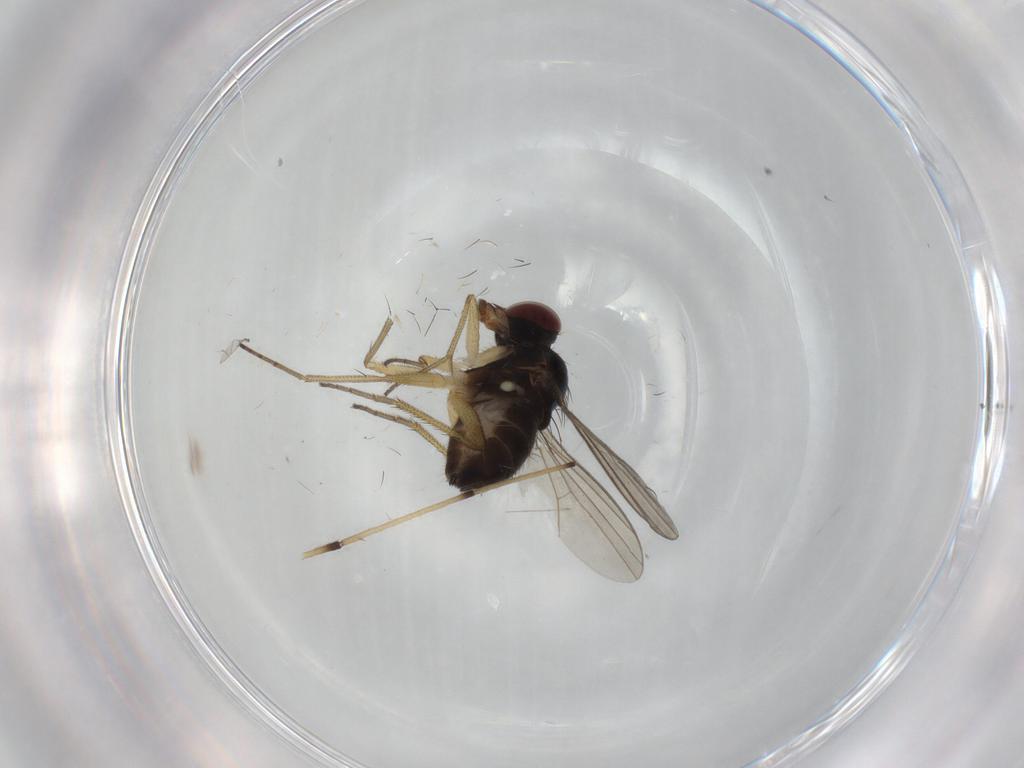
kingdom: Animalia
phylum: Arthropoda
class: Insecta
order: Diptera
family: Dolichopodidae
